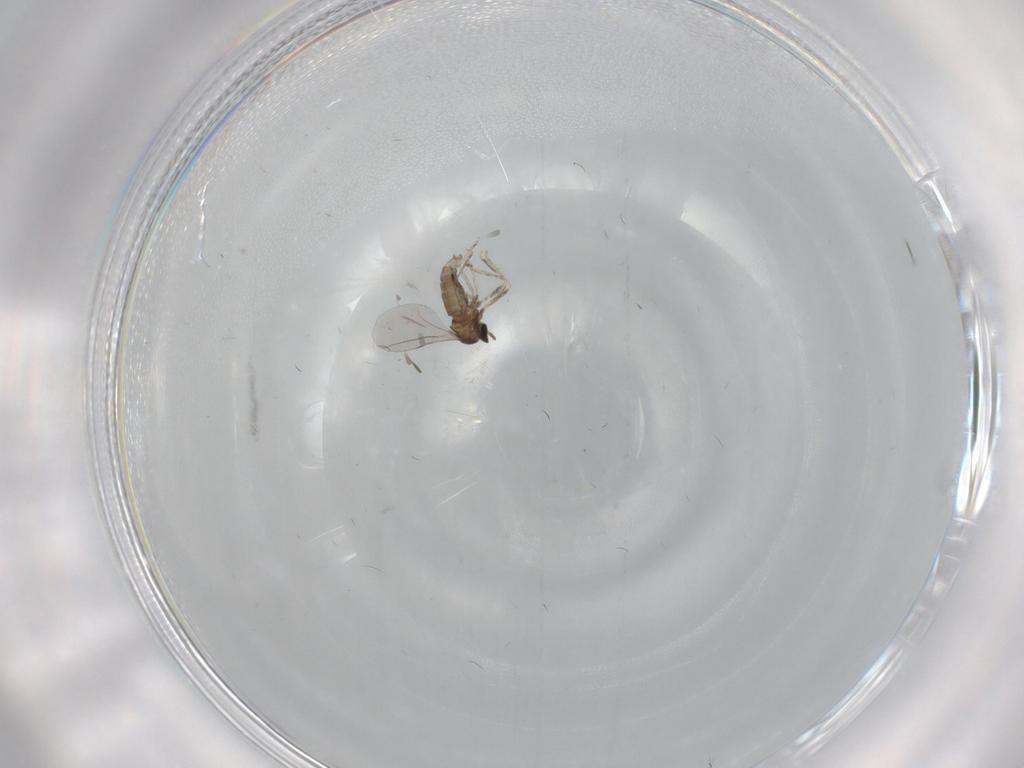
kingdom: Animalia
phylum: Arthropoda
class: Insecta
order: Diptera
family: Cecidomyiidae
